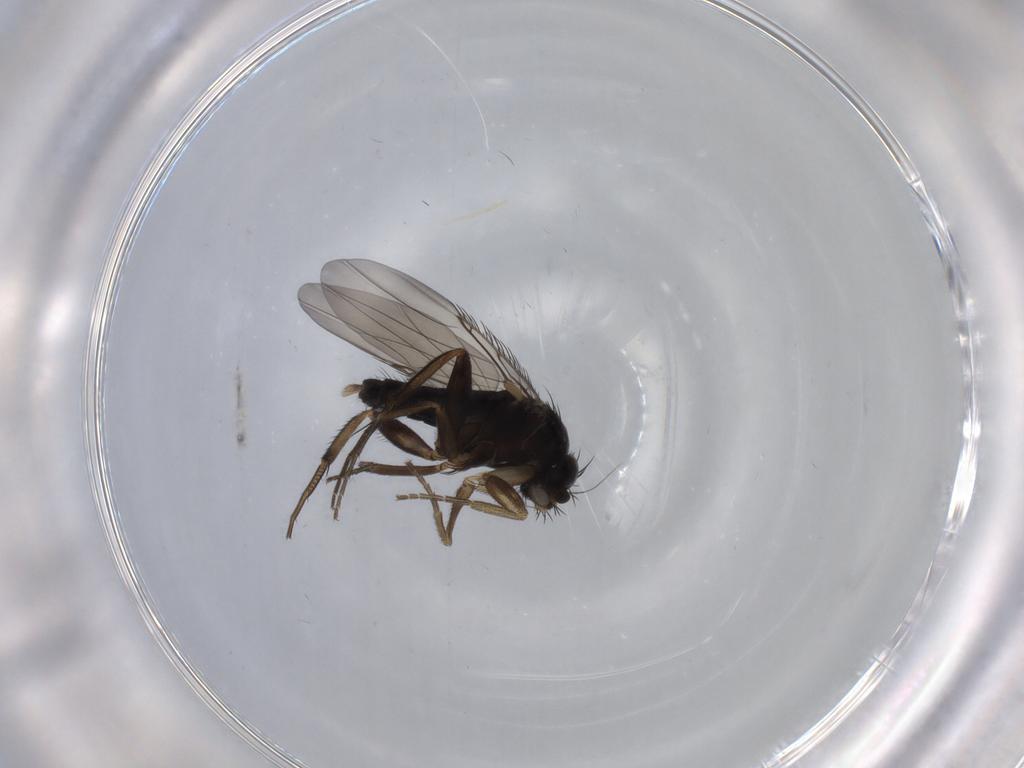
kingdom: Animalia
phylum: Arthropoda
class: Insecta
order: Diptera
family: Phoridae
